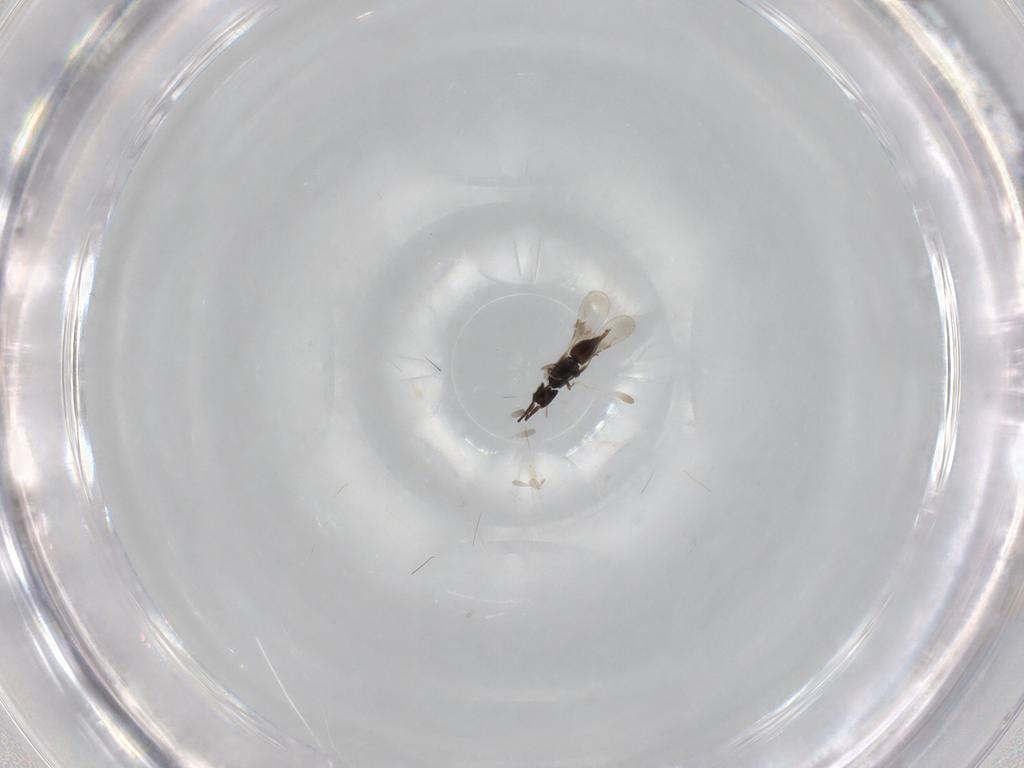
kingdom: Animalia
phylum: Arthropoda
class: Insecta
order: Hymenoptera
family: Ceraphronidae
